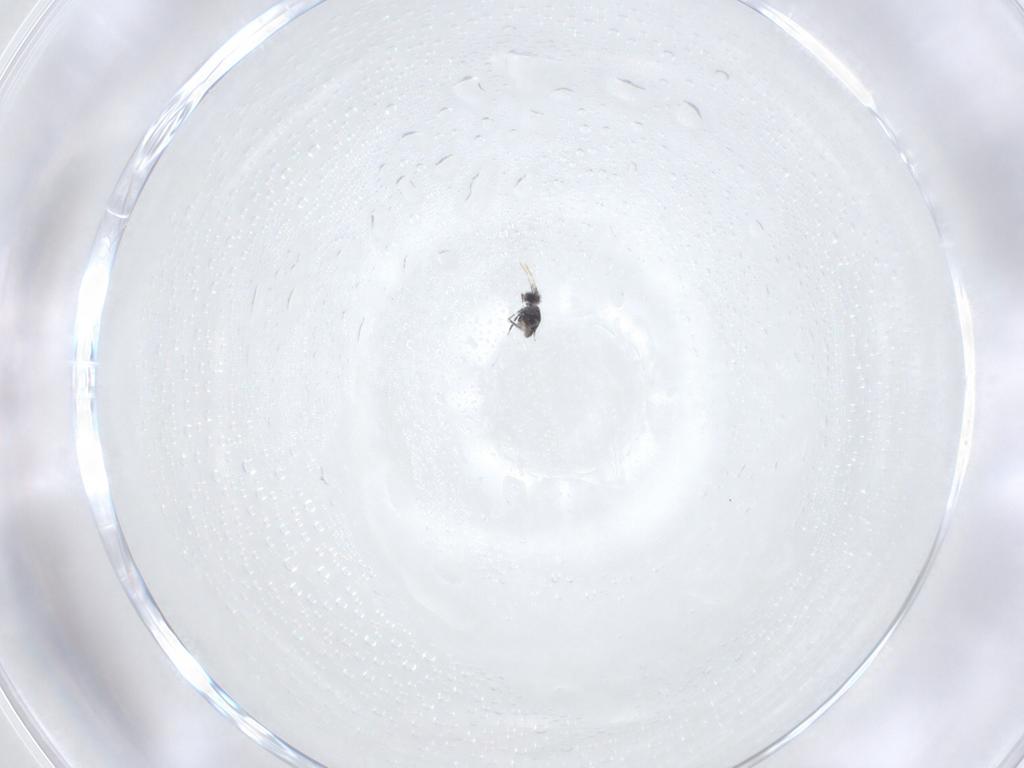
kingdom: Animalia
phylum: Arthropoda
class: Collembola
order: Symphypleona
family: Katiannidae
